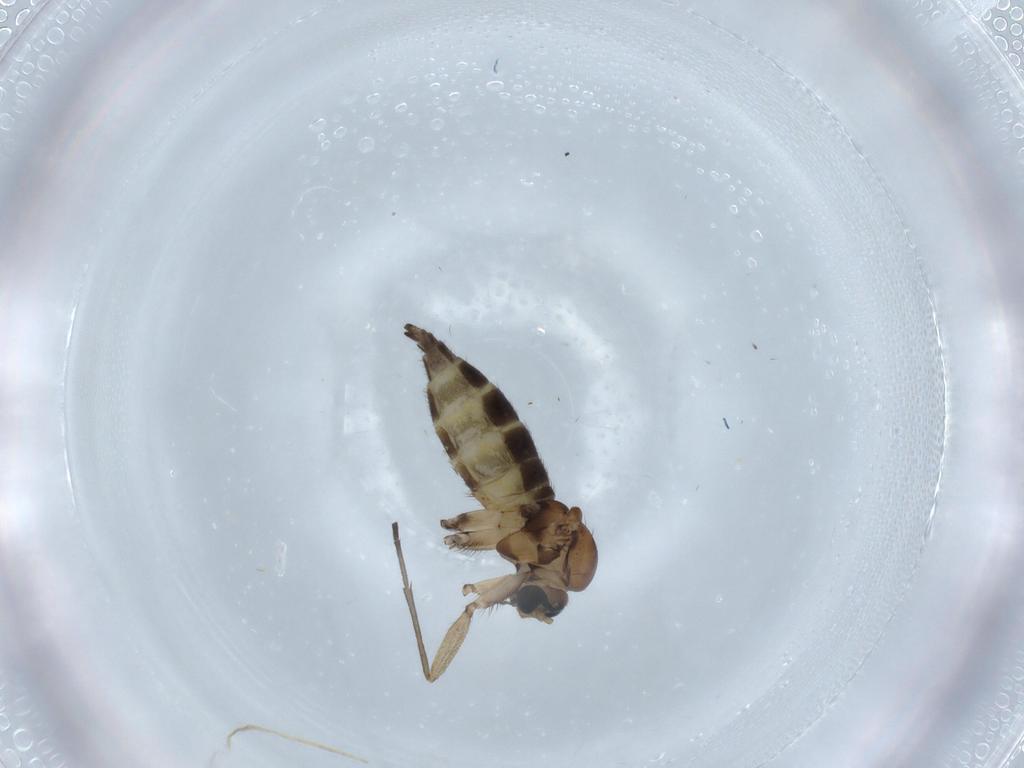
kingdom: Animalia
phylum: Arthropoda
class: Insecta
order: Diptera
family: Sciaridae
